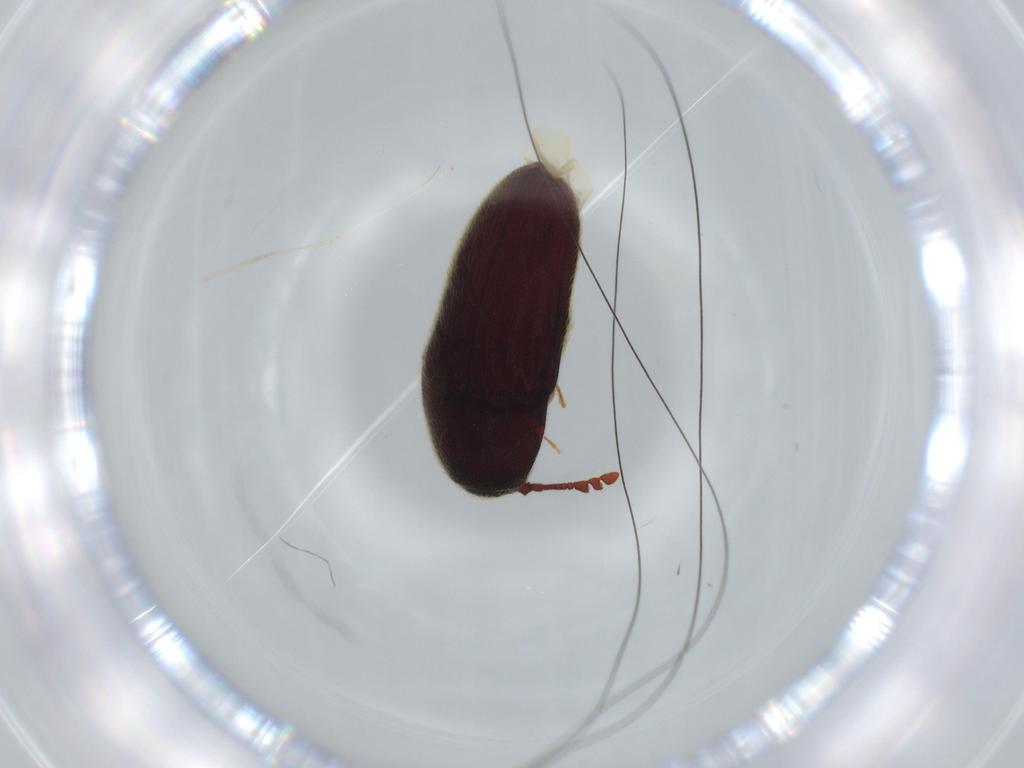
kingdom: Animalia
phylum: Arthropoda
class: Insecta
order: Coleoptera
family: Throscidae
